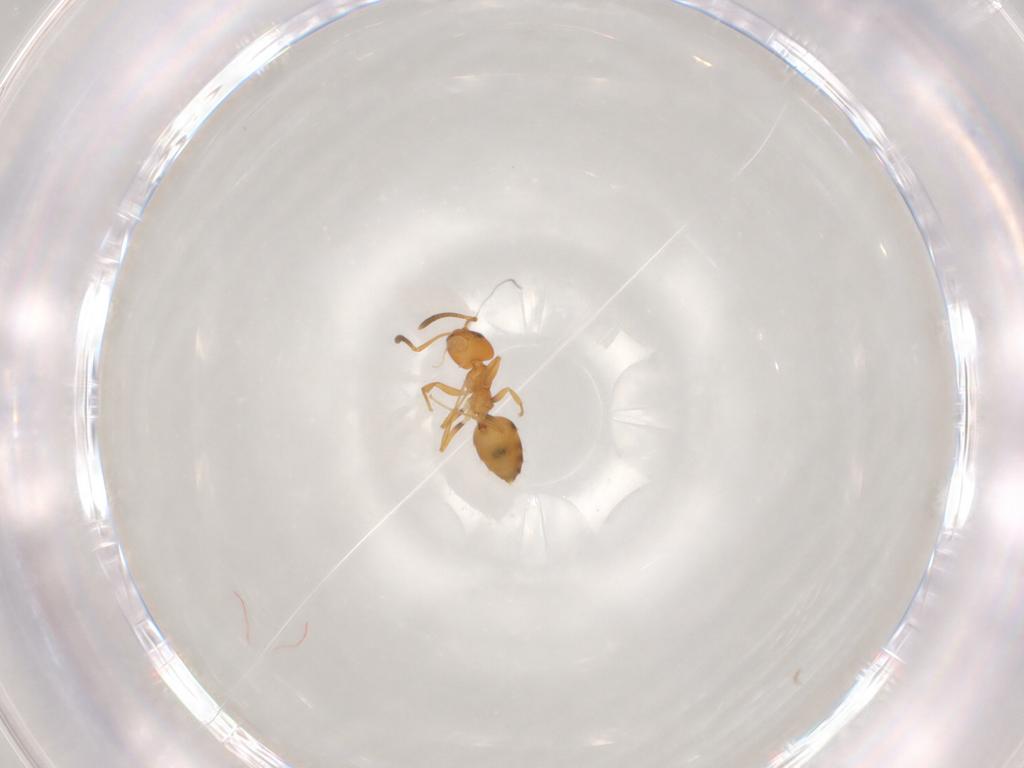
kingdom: Animalia
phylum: Arthropoda
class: Insecta
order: Hymenoptera
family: Formicidae
